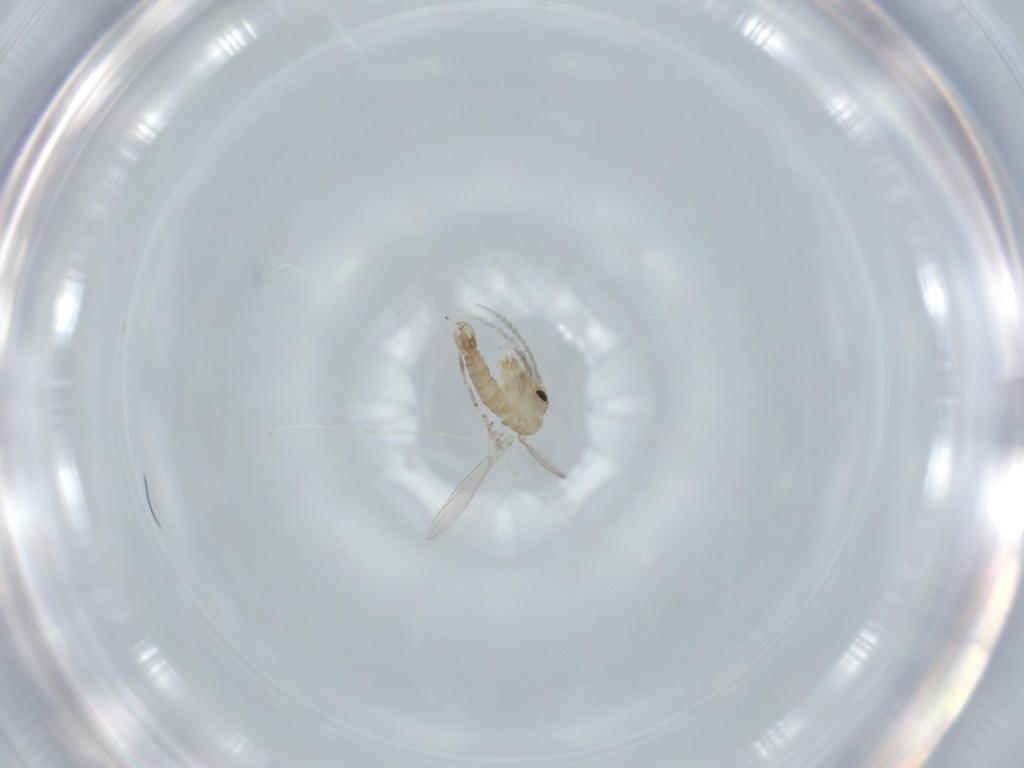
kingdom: Animalia
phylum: Arthropoda
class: Insecta
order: Diptera
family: Psychodidae
